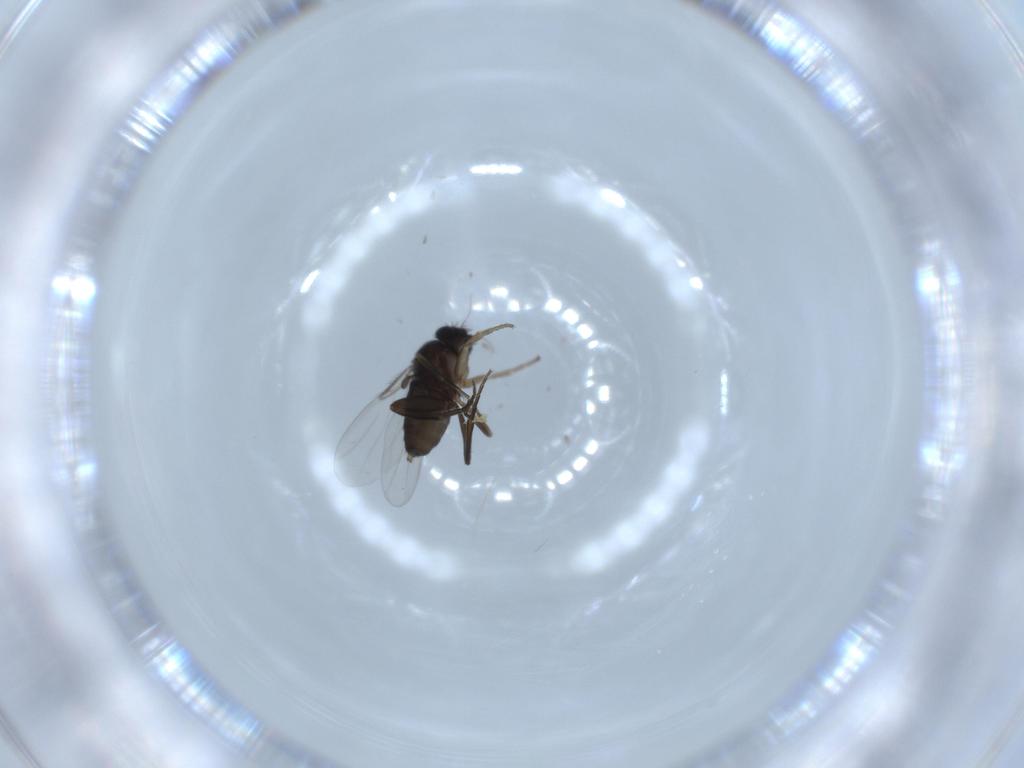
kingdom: Animalia
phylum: Arthropoda
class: Insecta
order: Diptera
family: Phoridae
